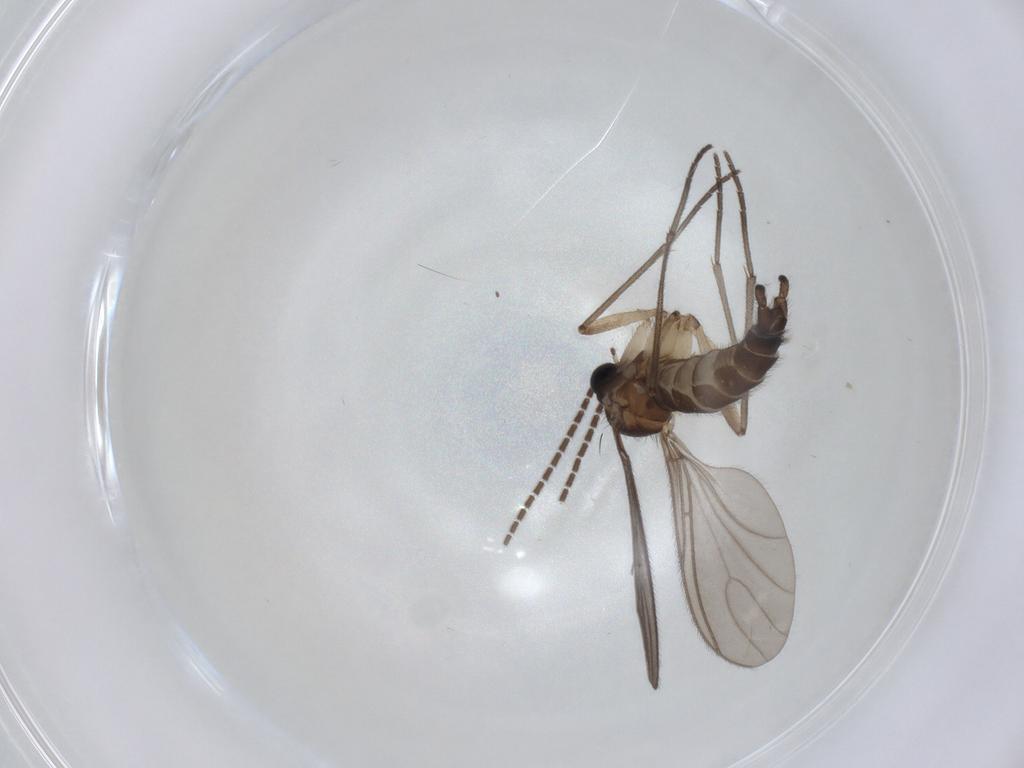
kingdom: Animalia
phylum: Arthropoda
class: Insecta
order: Diptera
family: Sciaridae
